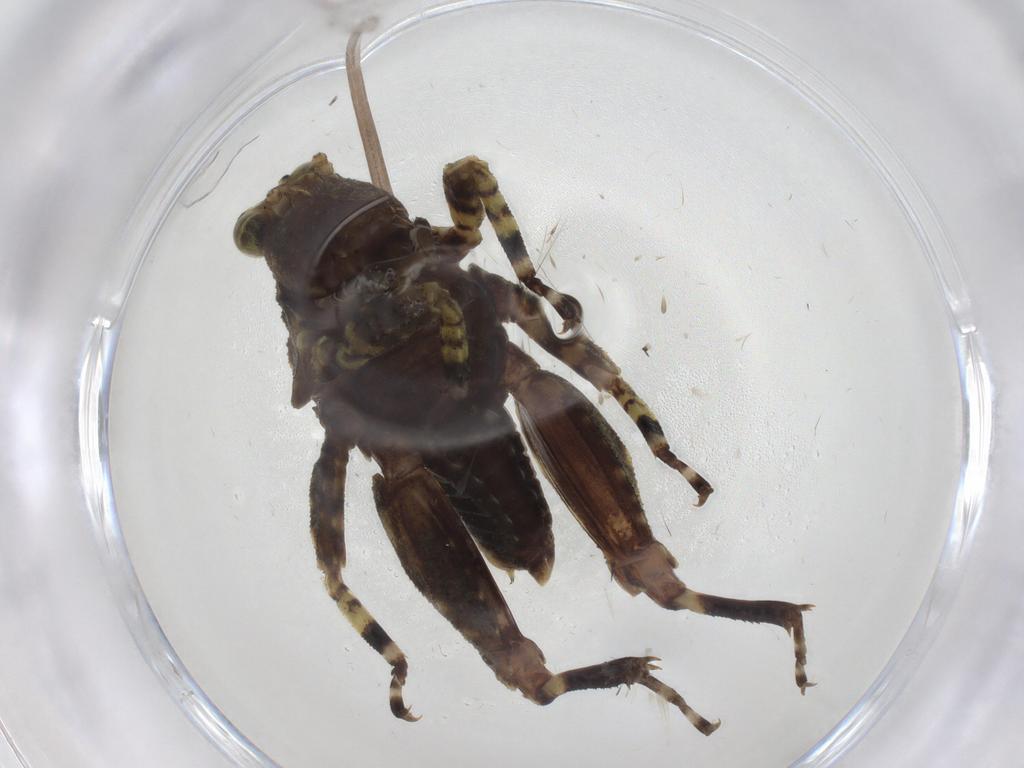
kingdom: Animalia
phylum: Arthropoda
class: Insecta
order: Orthoptera
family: Tetrigidae
